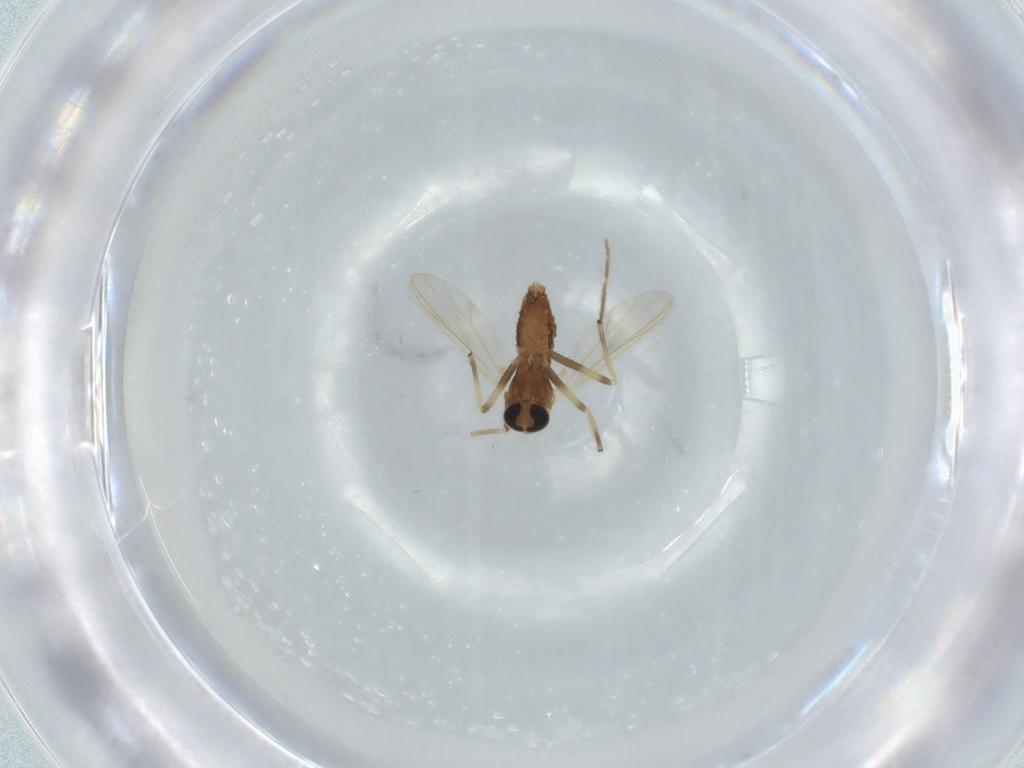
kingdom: Animalia
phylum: Arthropoda
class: Insecta
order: Diptera
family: Chironomidae
